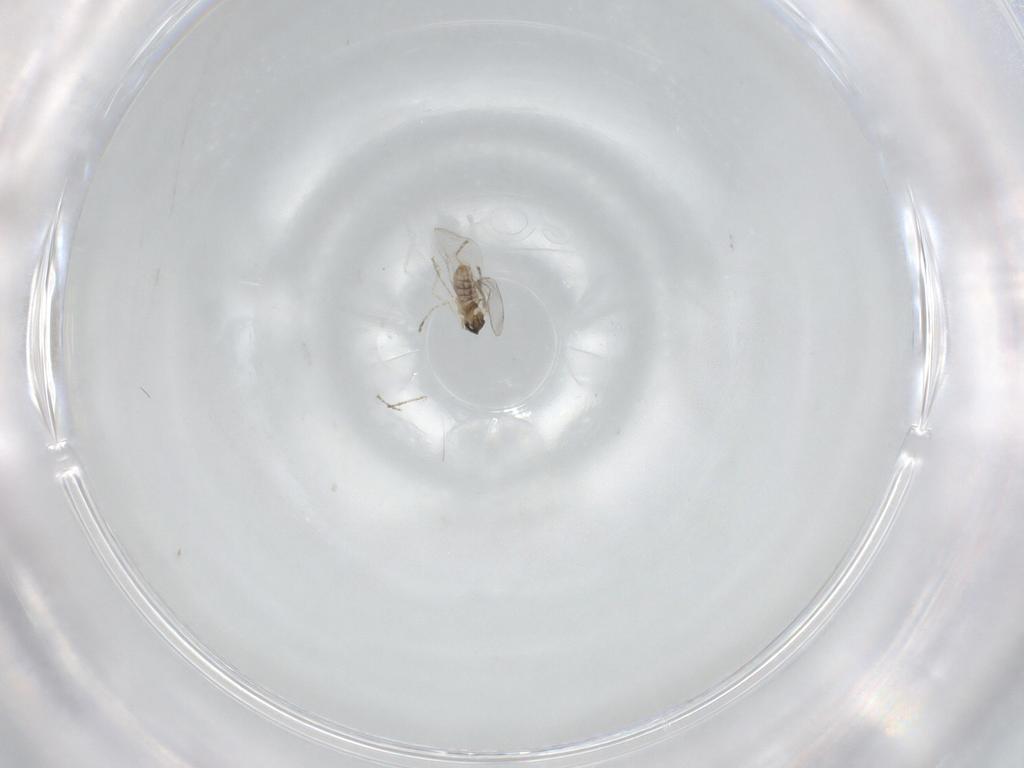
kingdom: Animalia
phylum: Arthropoda
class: Insecta
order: Diptera
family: Cecidomyiidae
